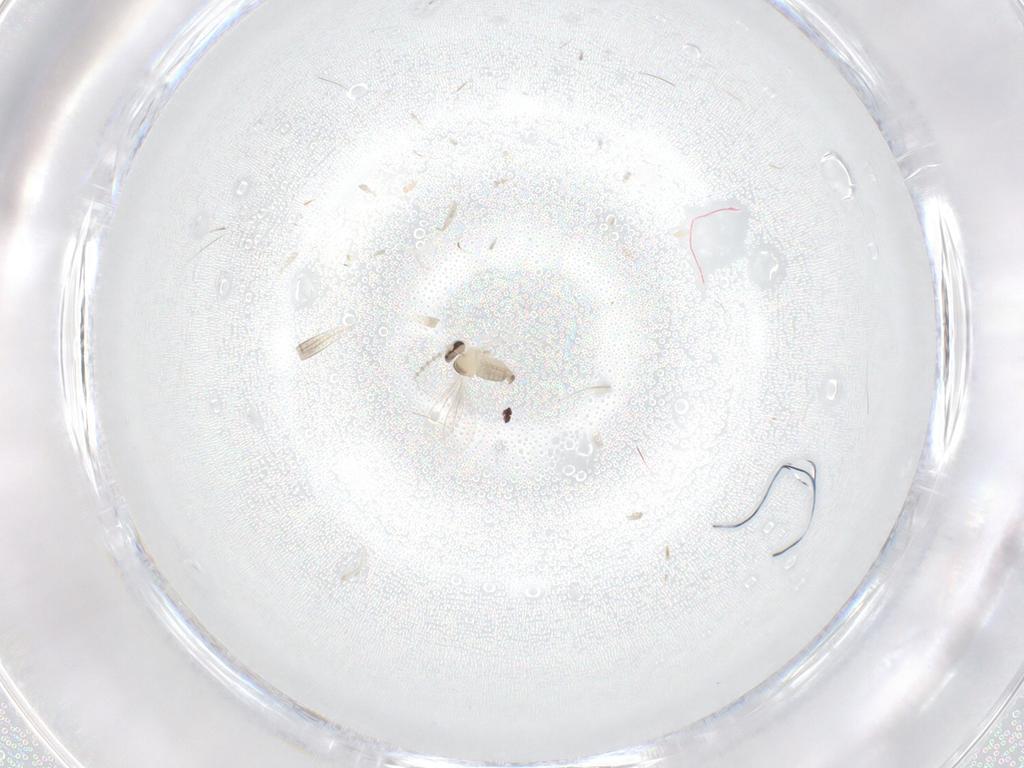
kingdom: Animalia
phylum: Arthropoda
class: Insecta
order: Diptera
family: Cecidomyiidae
